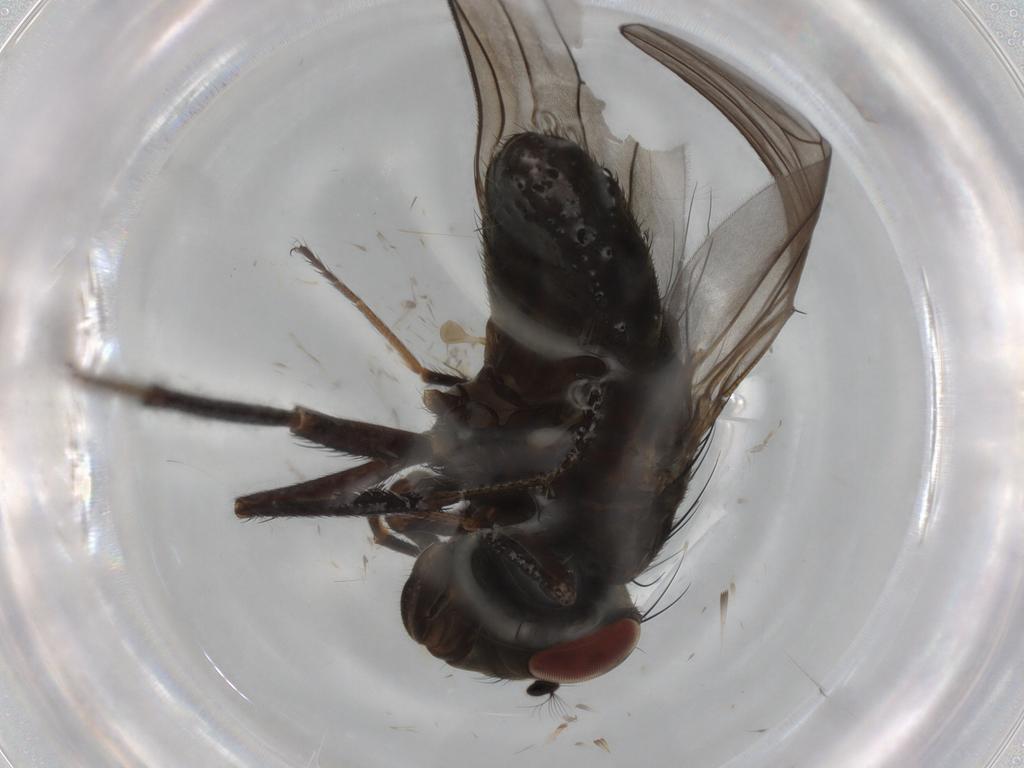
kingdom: Animalia
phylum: Arthropoda
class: Insecta
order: Diptera
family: Ephydridae
